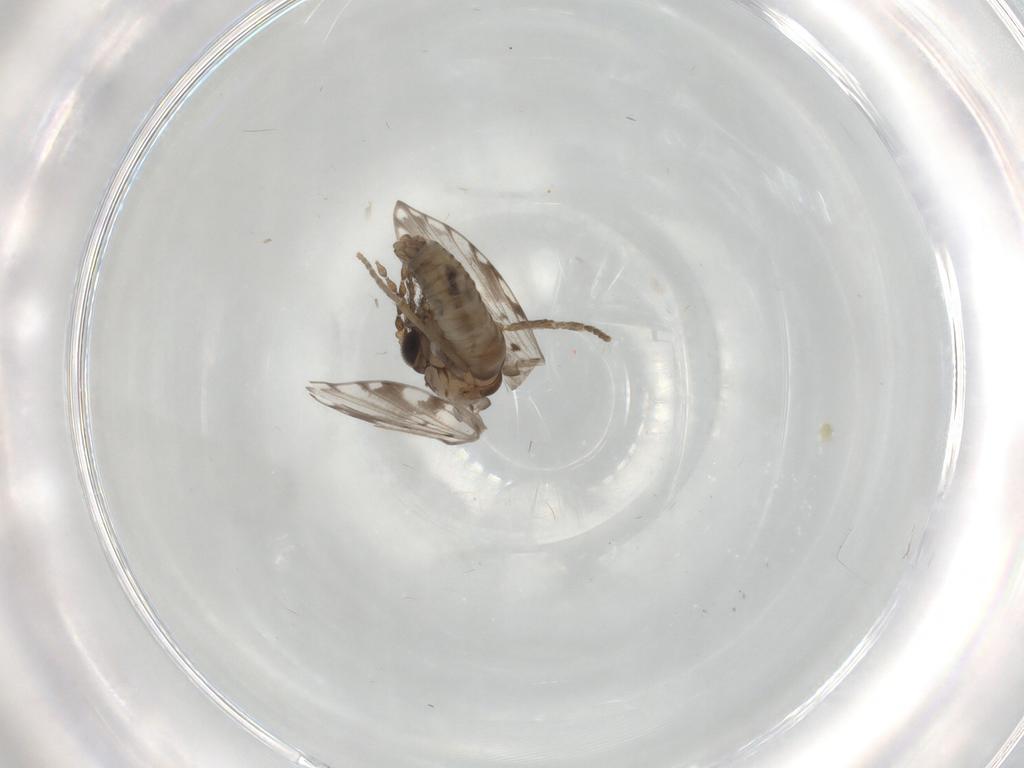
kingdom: Animalia
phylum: Arthropoda
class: Insecta
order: Diptera
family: Psychodidae
